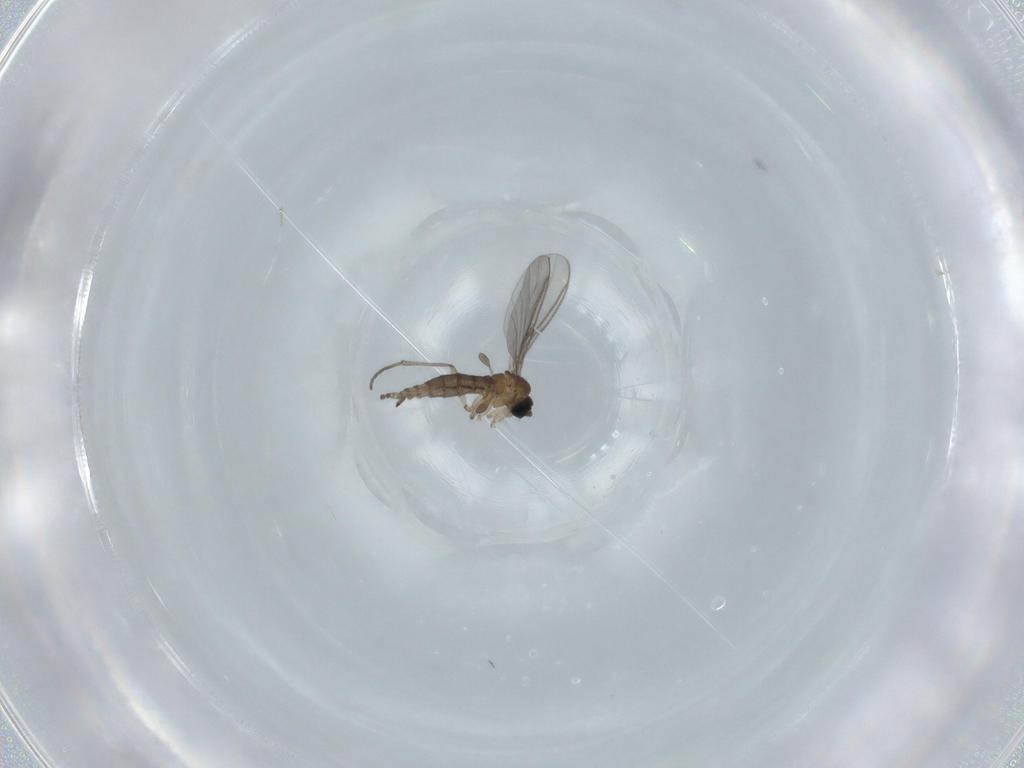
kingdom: Animalia
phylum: Arthropoda
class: Insecta
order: Diptera
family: Sciaridae
